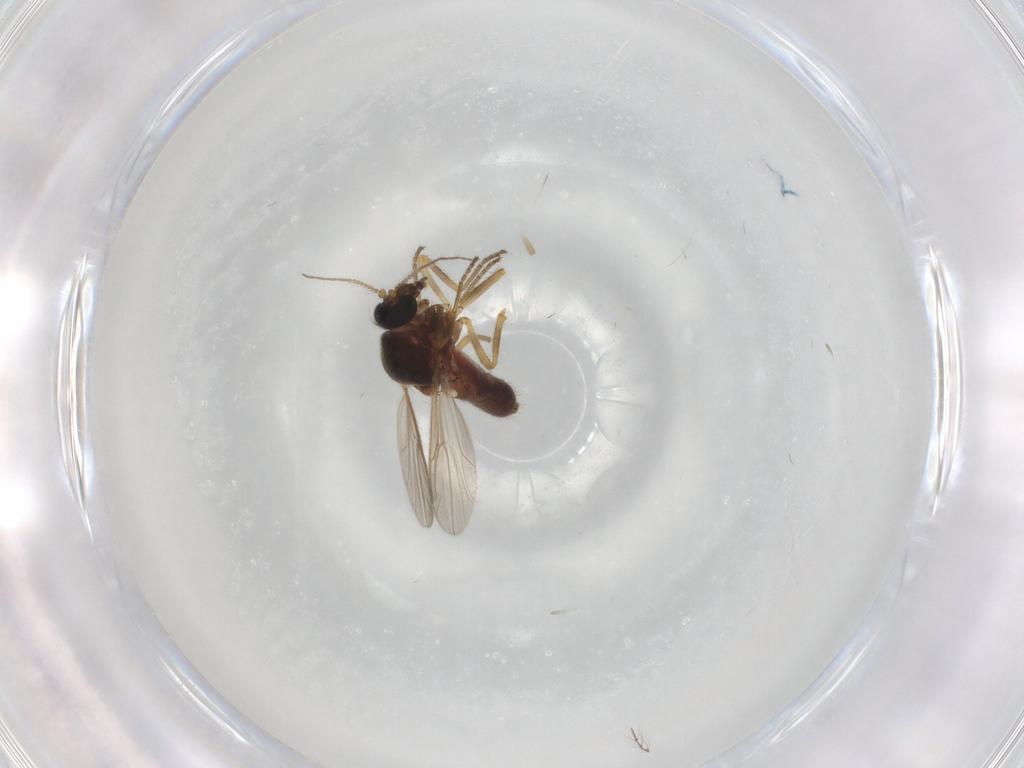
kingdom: Animalia
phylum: Arthropoda
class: Insecta
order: Diptera
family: Ceratopogonidae
